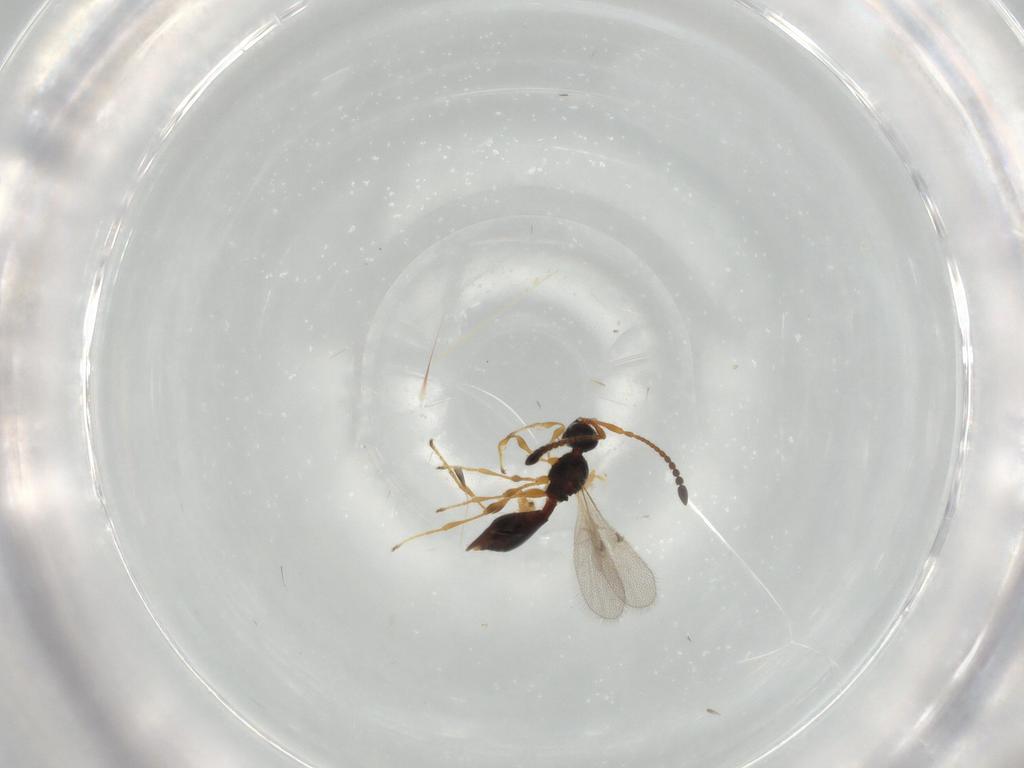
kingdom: Animalia
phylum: Arthropoda
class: Insecta
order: Hymenoptera
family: Diapriidae
